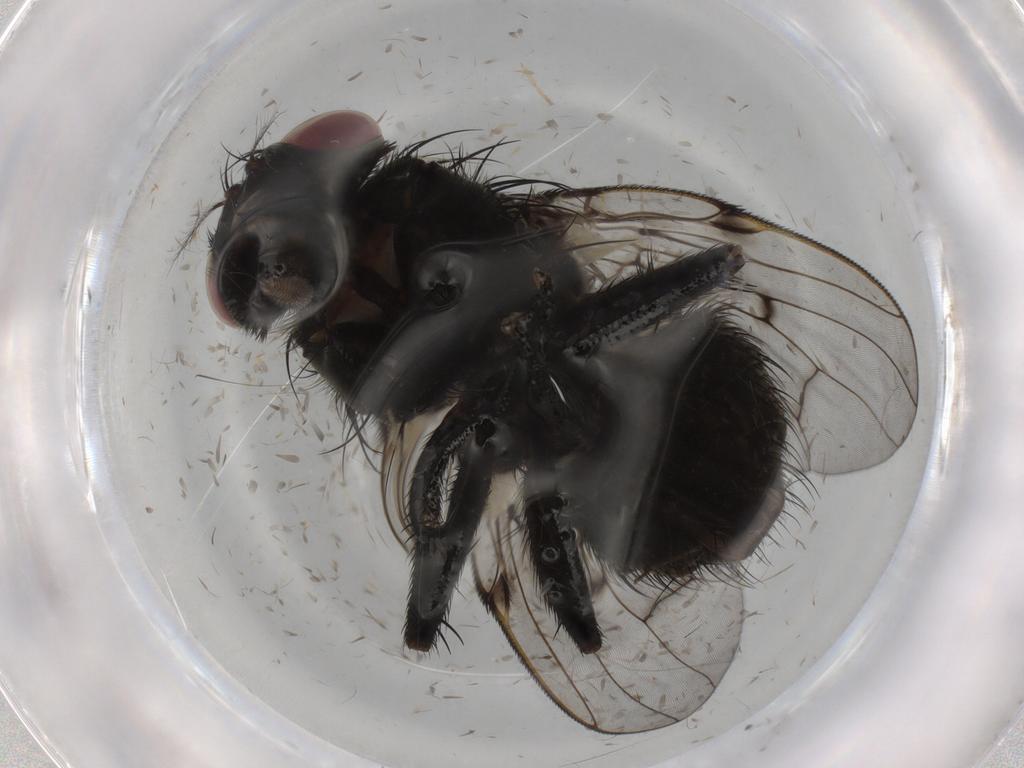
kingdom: Animalia
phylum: Arthropoda
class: Insecta
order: Diptera
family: Muscidae
